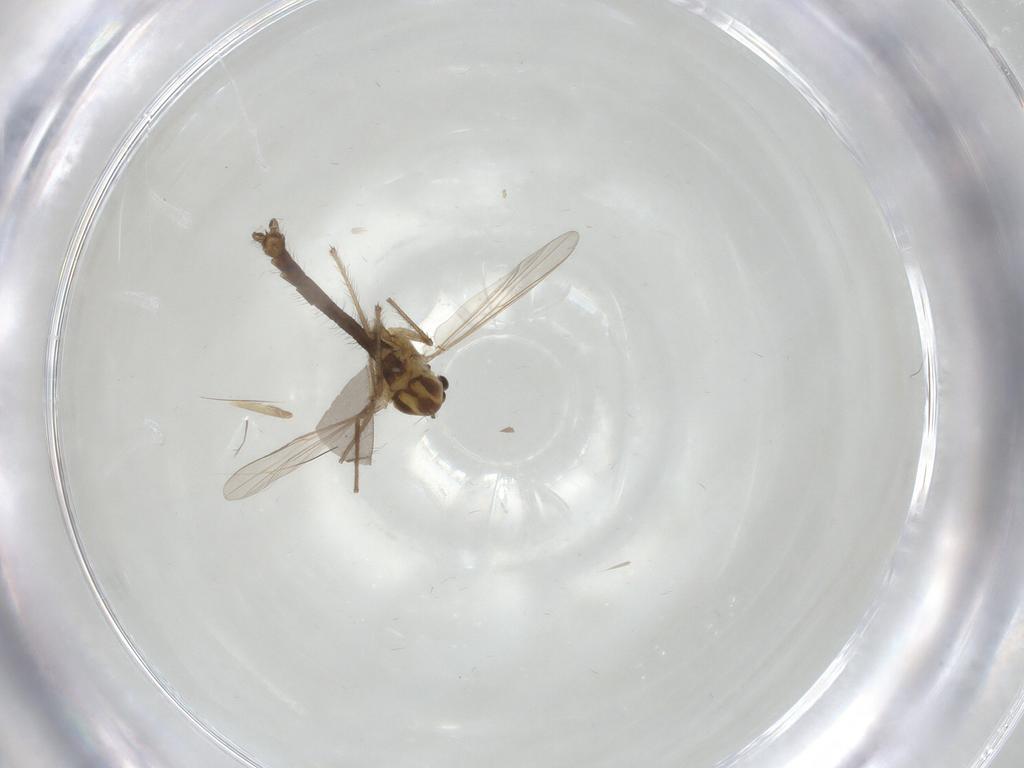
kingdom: Animalia
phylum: Arthropoda
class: Insecta
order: Diptera
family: Chironomidae
